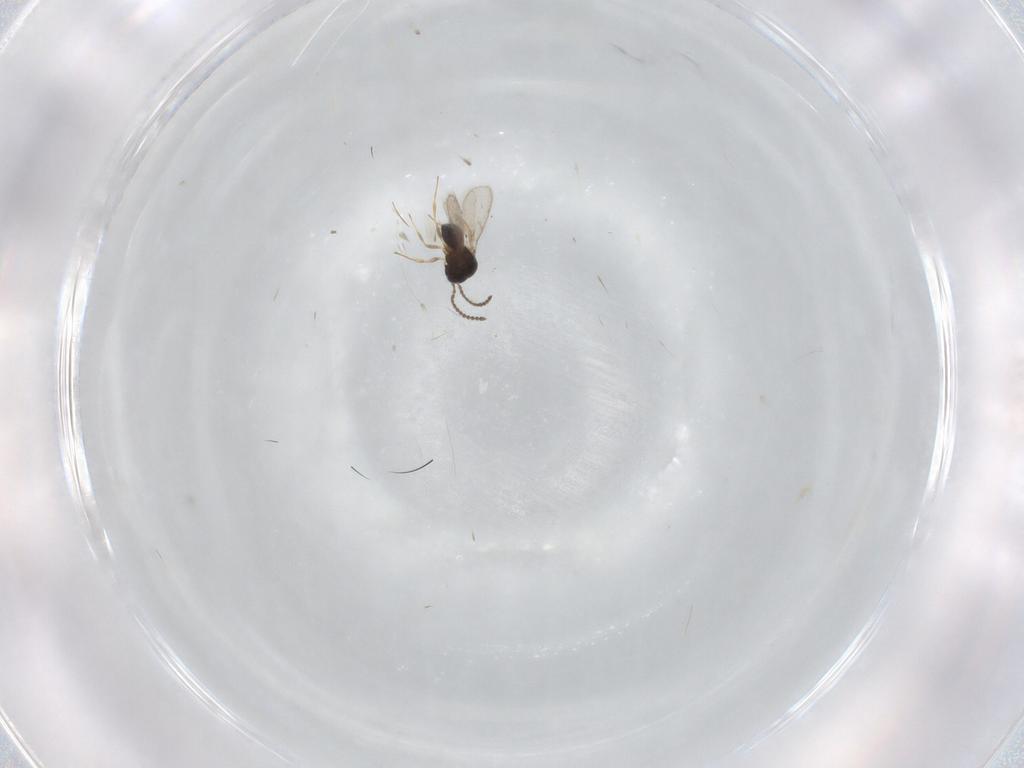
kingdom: Animalia
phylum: Arthropoda
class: Insecta
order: Hymenoptera
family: Scelionidae
